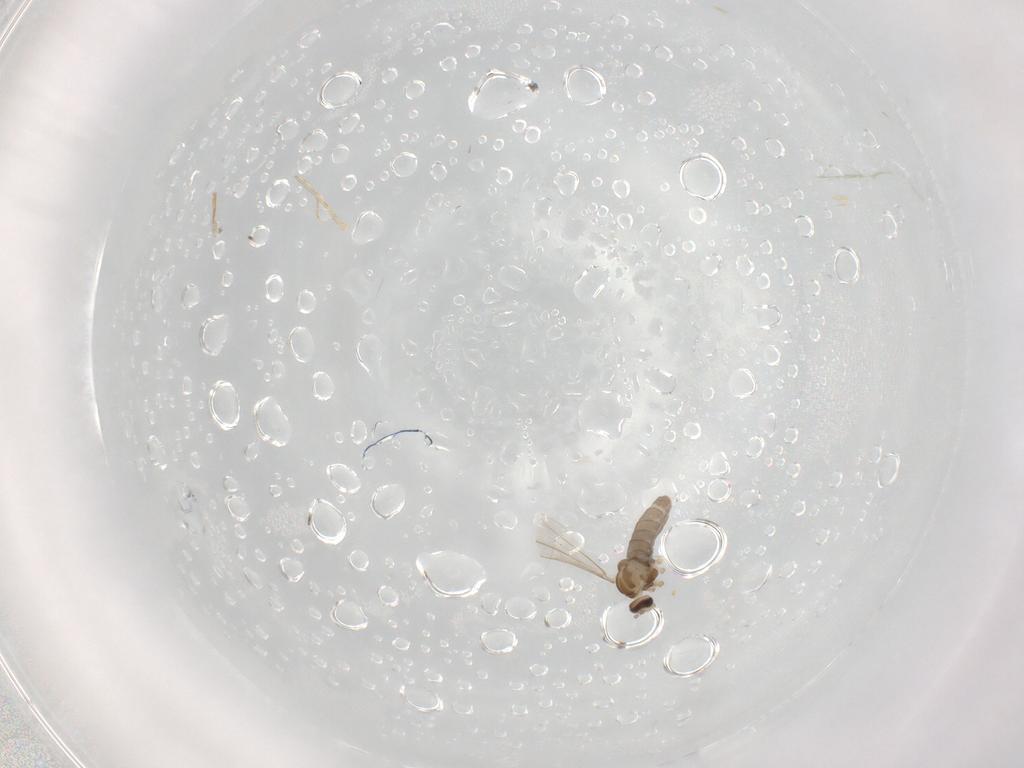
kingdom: Animalia
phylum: Arthropoda
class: Insecta
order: Diptera
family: Cecidomyiidae
